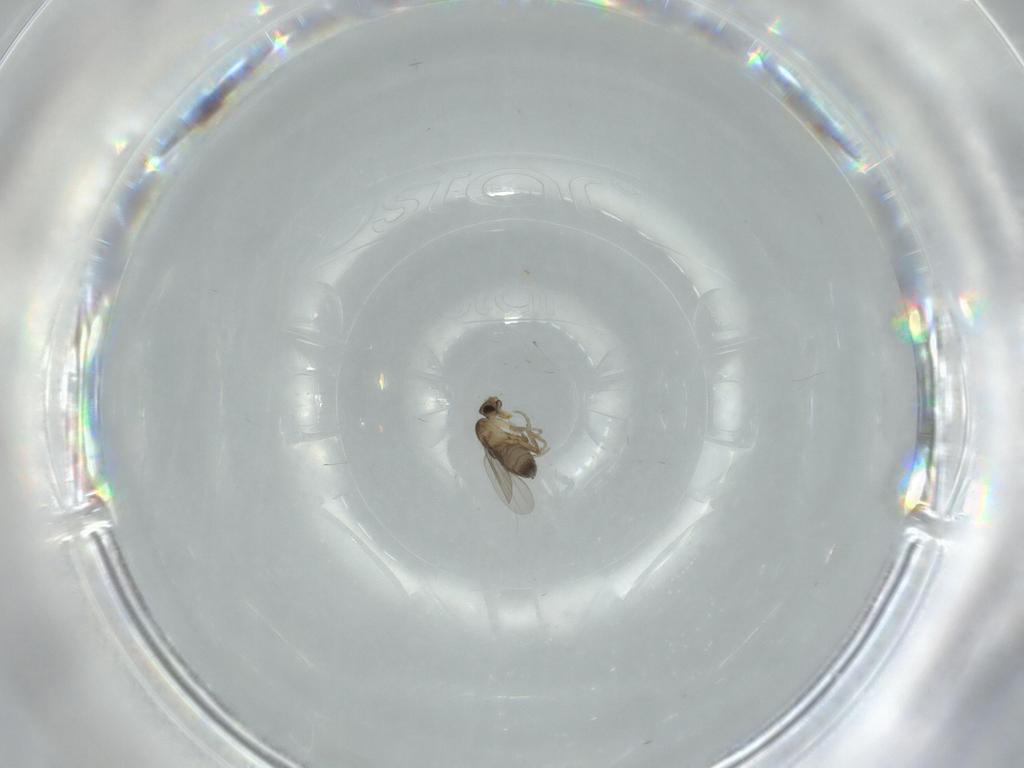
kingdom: Animalia
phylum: Arthropoda
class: Insecta
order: Diptera
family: Phoridae
